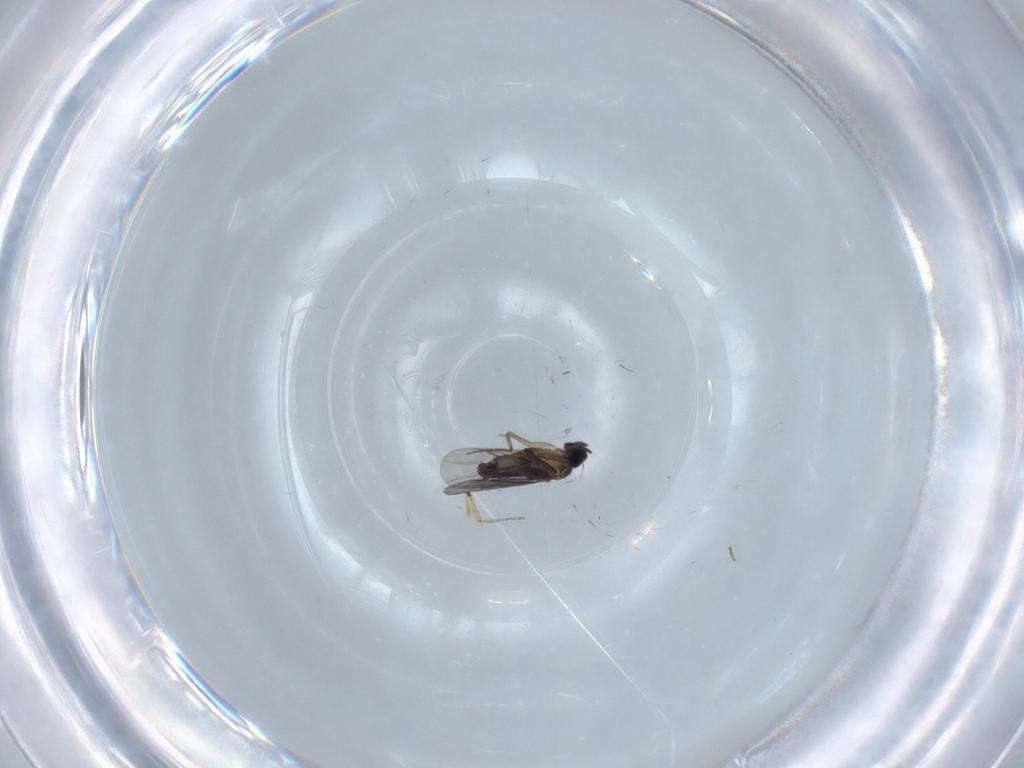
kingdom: Animalia
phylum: Arthropoda
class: Insecta
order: Diptera
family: Ceratopogonidae
